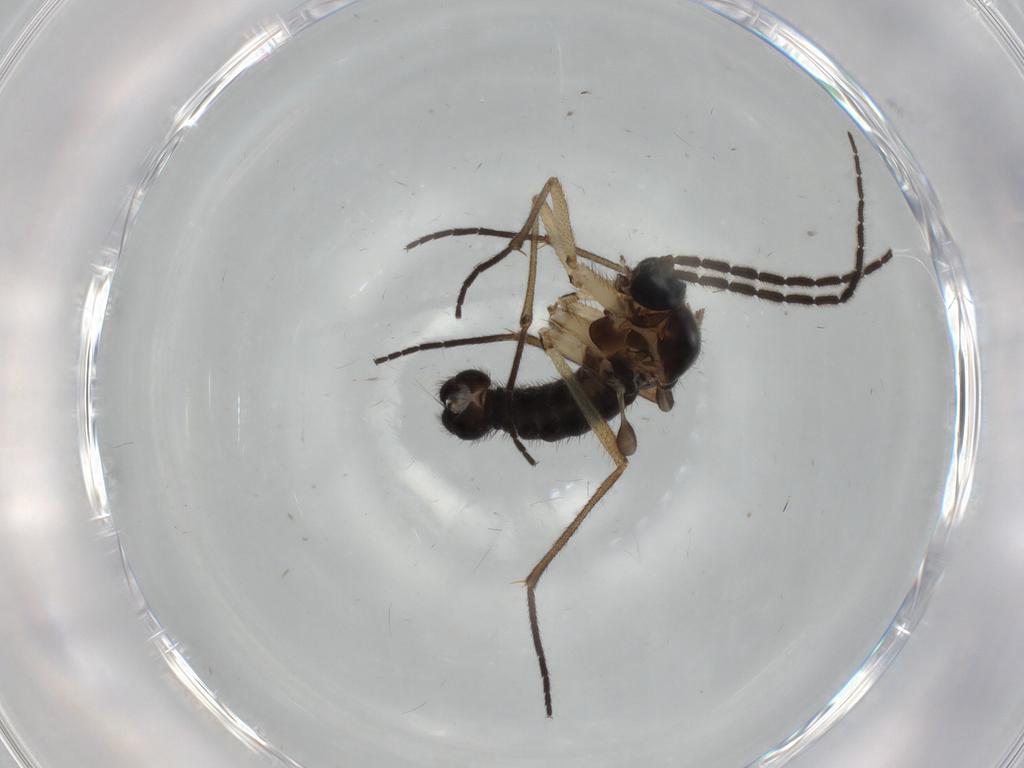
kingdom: Animalia
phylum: Arthropoda
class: Insecta
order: Diptera
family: Sciaridae
